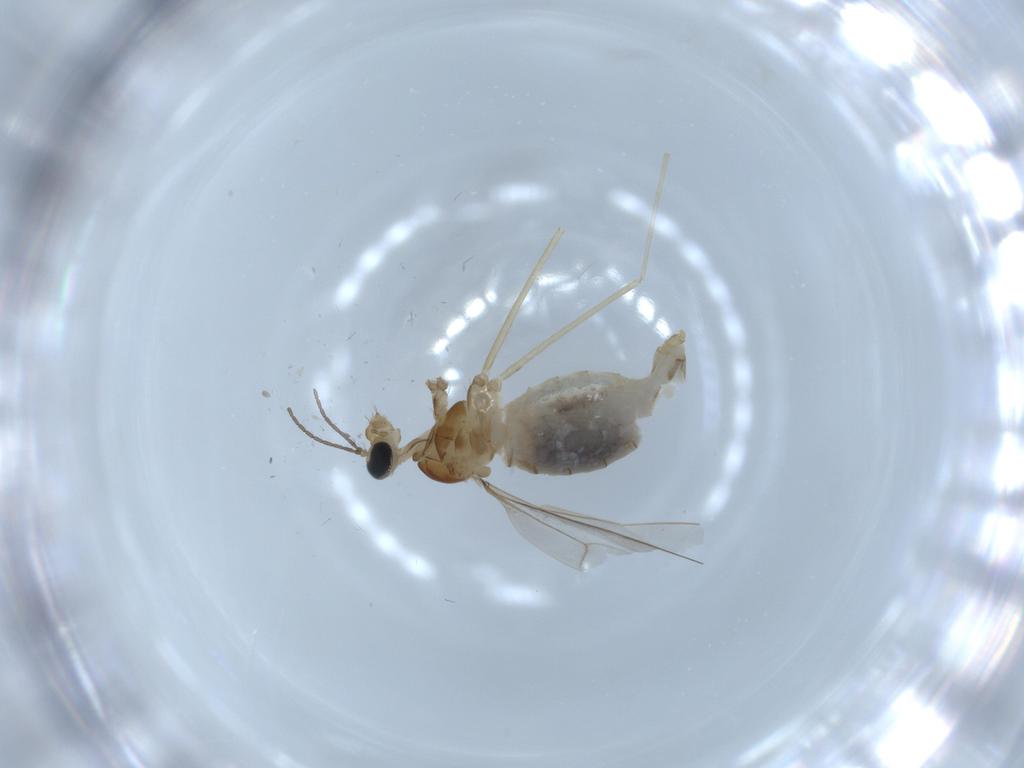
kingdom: Animalia
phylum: Arthropoda
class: Insecta
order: Diptera
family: Cecidomyiidae
